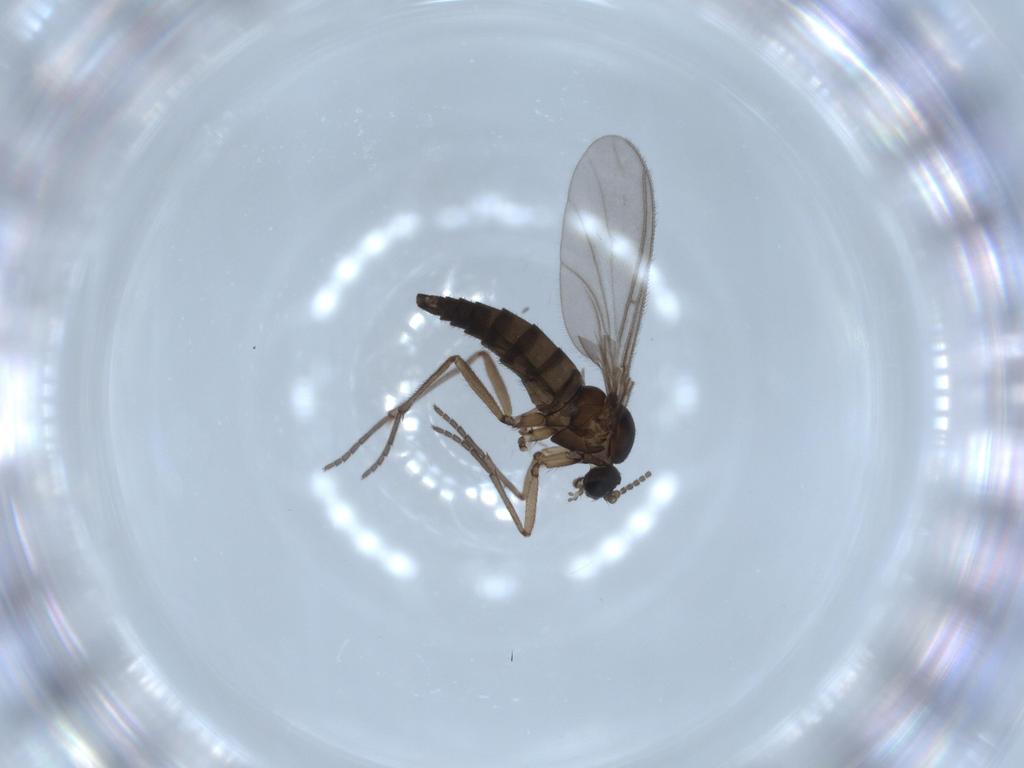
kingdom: Animalia
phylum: Arthropoda
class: Insecta
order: Diptera
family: Sciaridae
